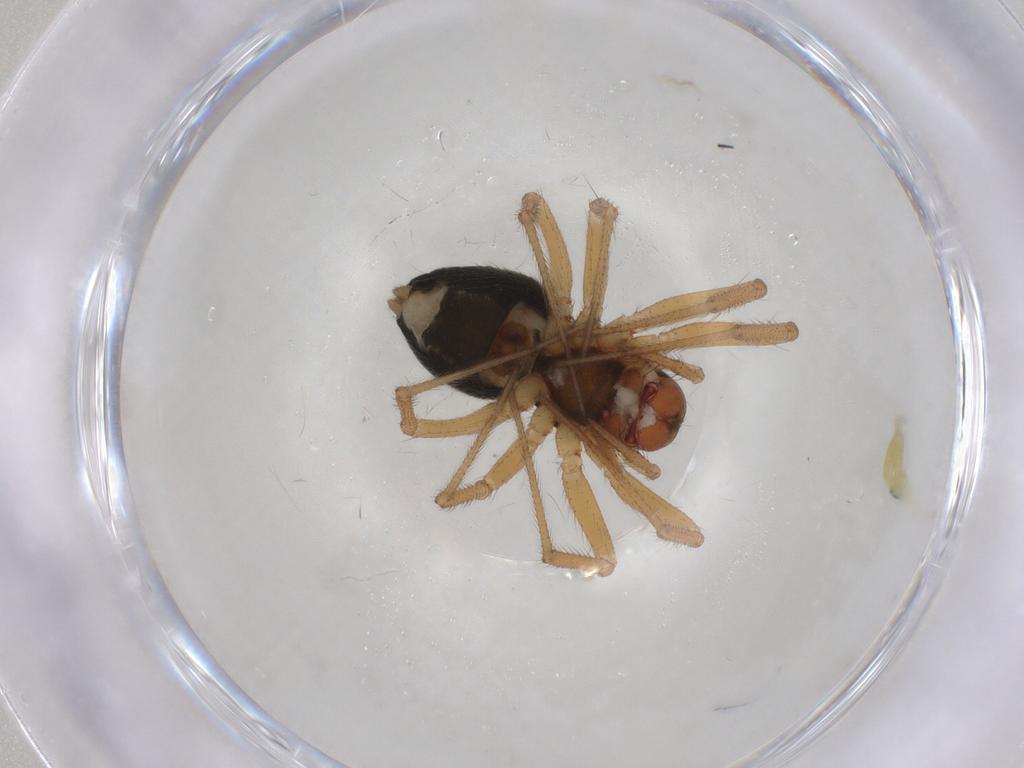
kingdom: Animalia
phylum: Arthropoda
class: Arachnida
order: Araneae
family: Linyphiidae
